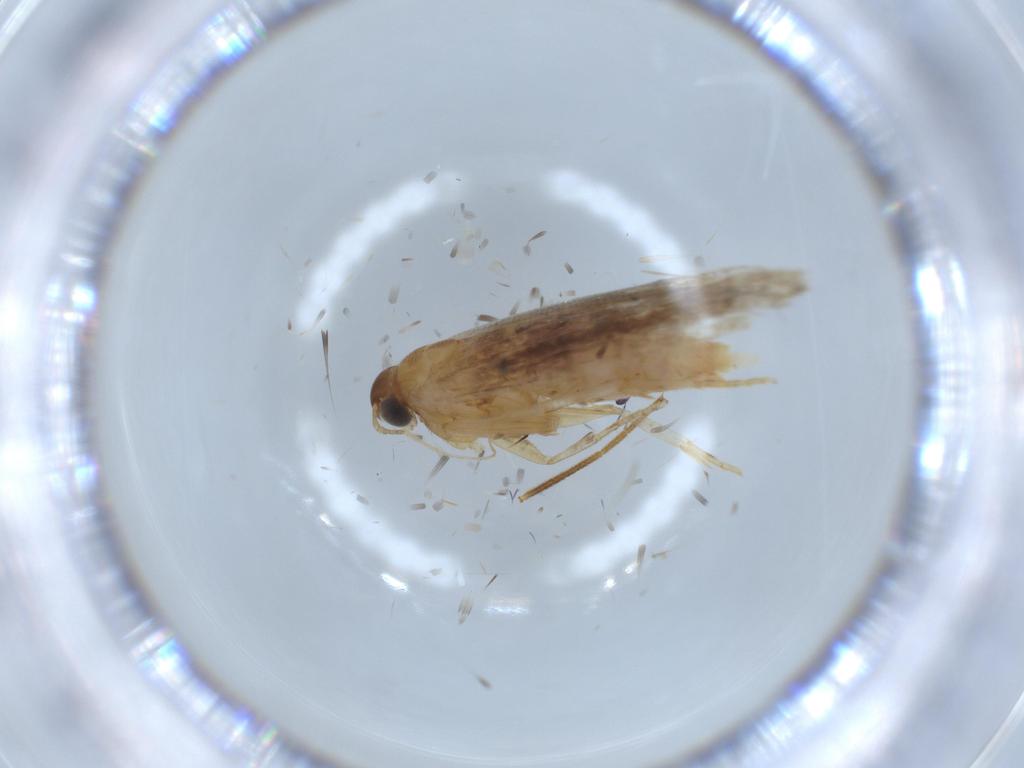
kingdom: Animalia
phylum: Arthropoda
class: Insecta
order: Lepidoptera
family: Gelechiidae
